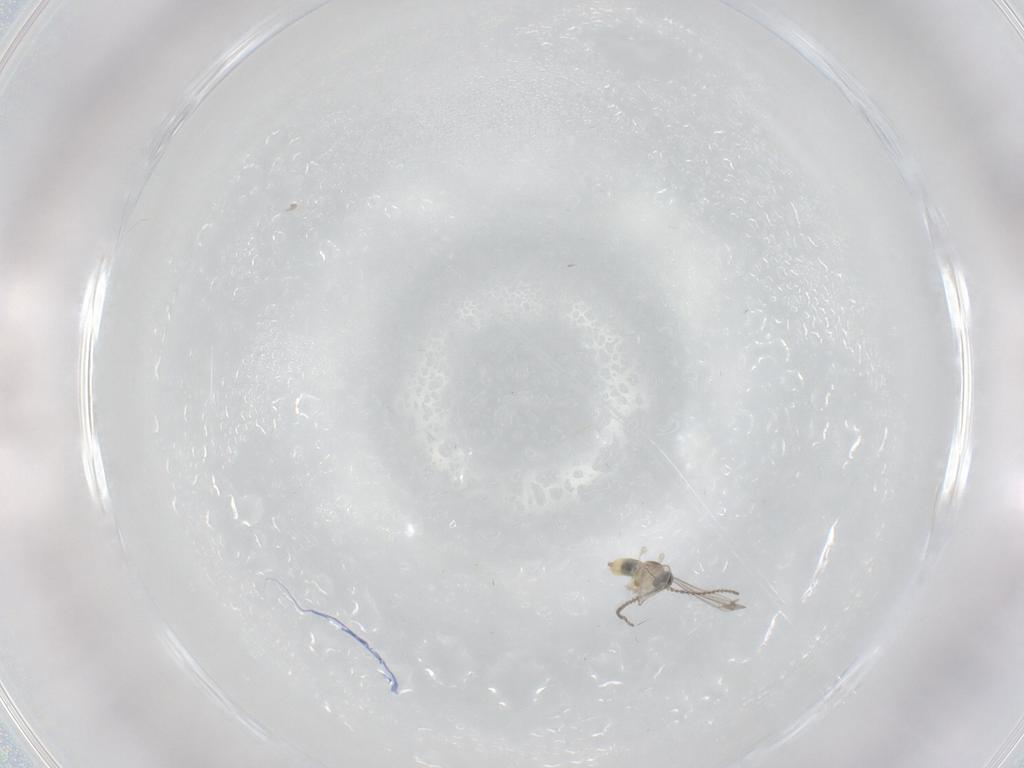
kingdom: Animalia
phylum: Arthropoda
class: Insecta
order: Diptera
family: Cecidomyiidae
